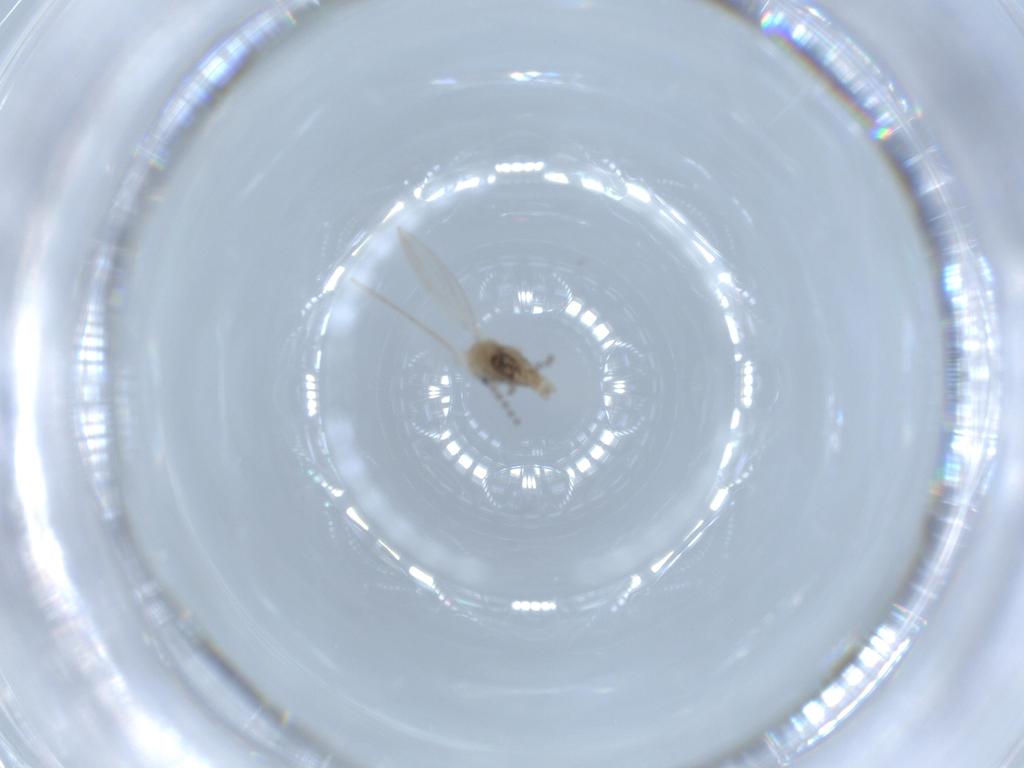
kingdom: Animalia
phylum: Arthropoda
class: Insecta
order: Diptera
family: Psychodidae
